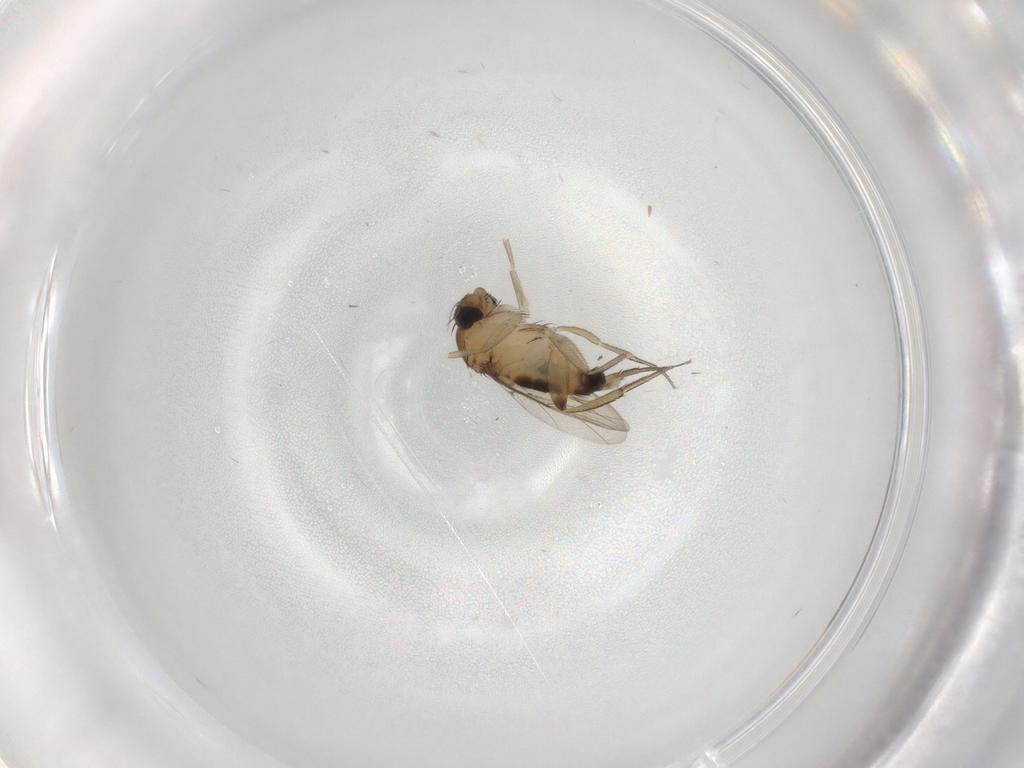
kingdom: Animalia
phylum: Arthropoda
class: Insecta
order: Diptera
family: Phoridae
